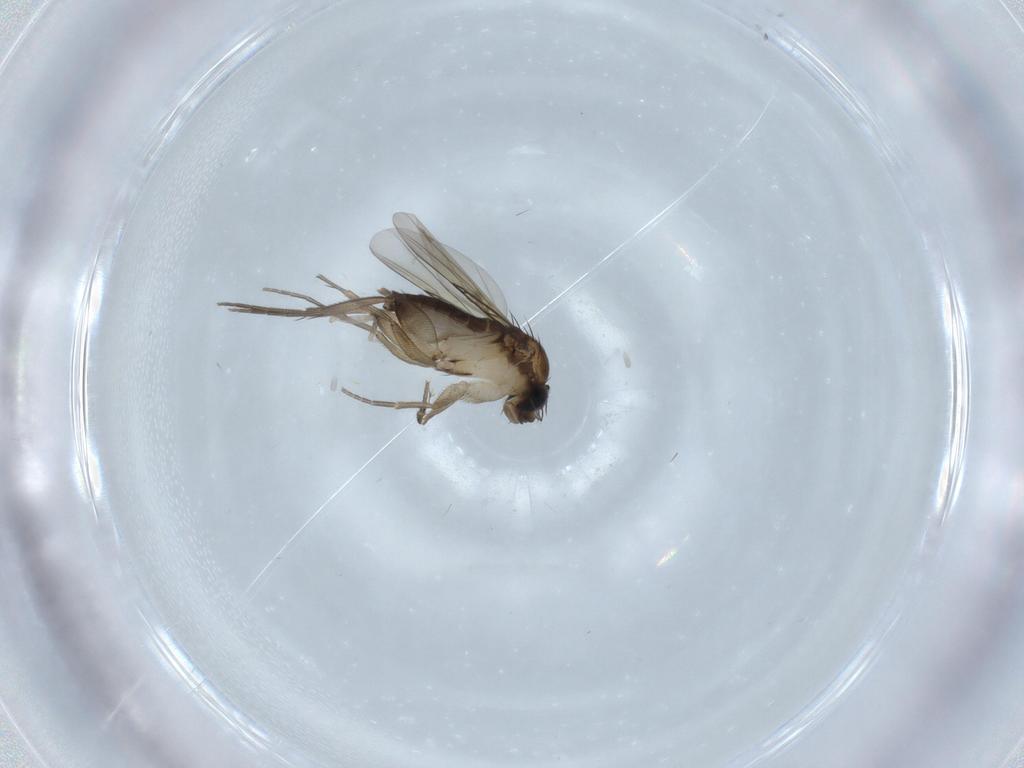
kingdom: Animalia
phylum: Arthropoda
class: Insecta
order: Diptera
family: Phoridae
